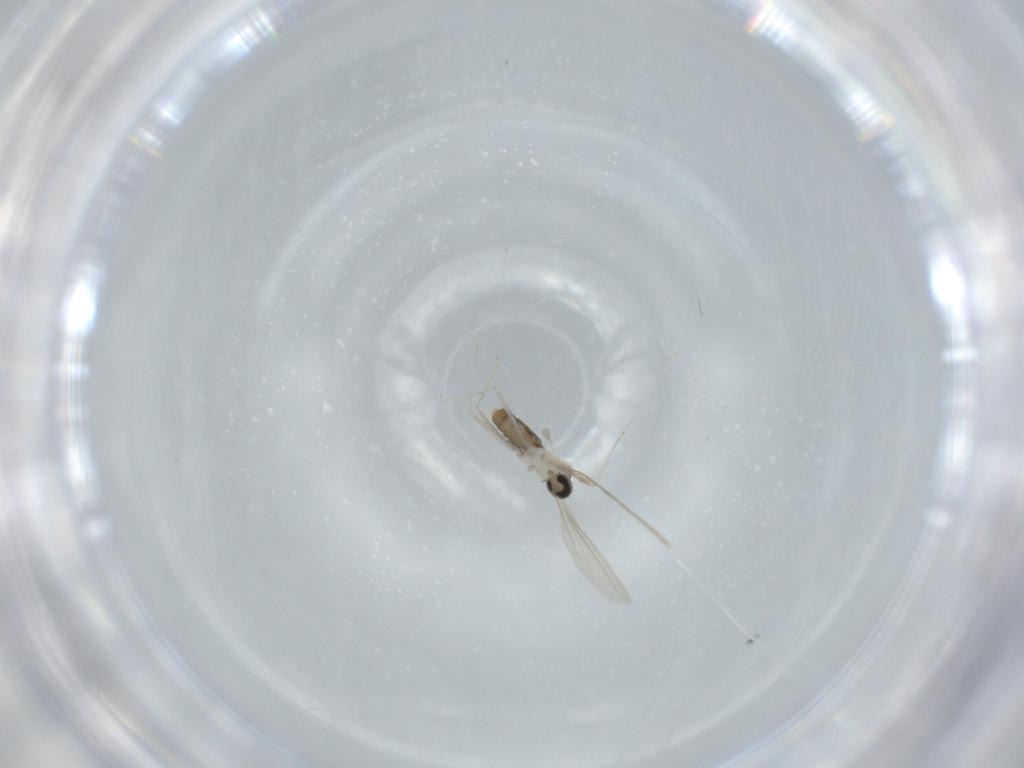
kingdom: Animalia
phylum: Arthropoda
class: Insecta
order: Diptera
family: Cecidomyiidae
